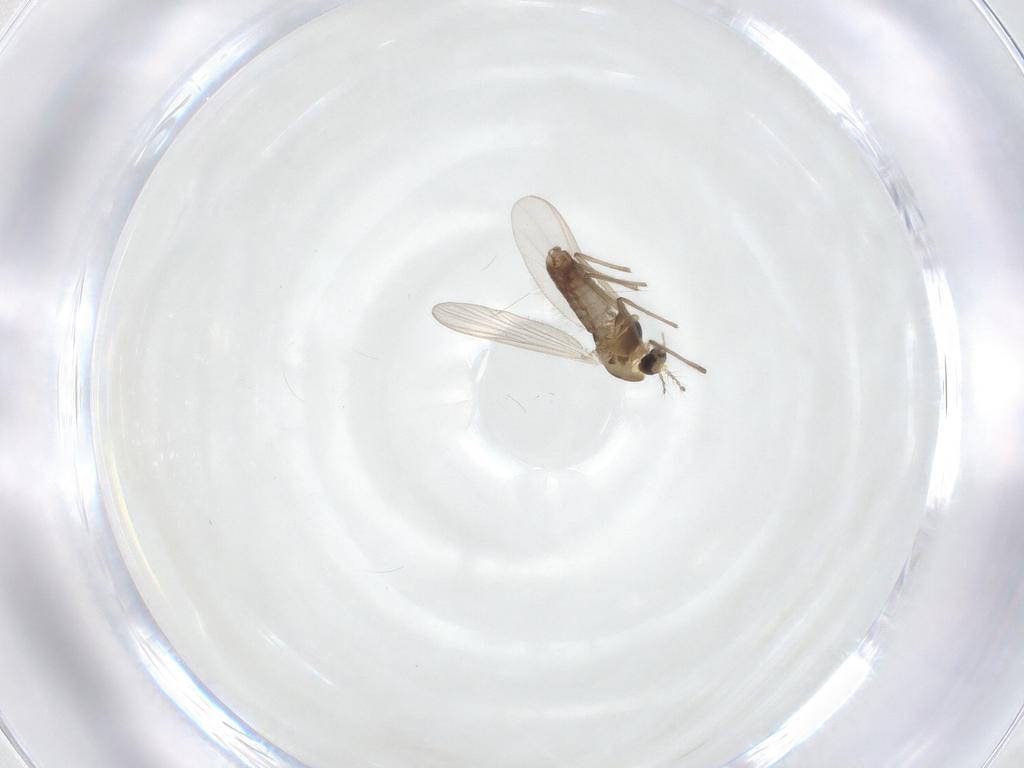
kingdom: Animalia
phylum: Arthropoda
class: Insecta
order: Diptera
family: Chironomidae
